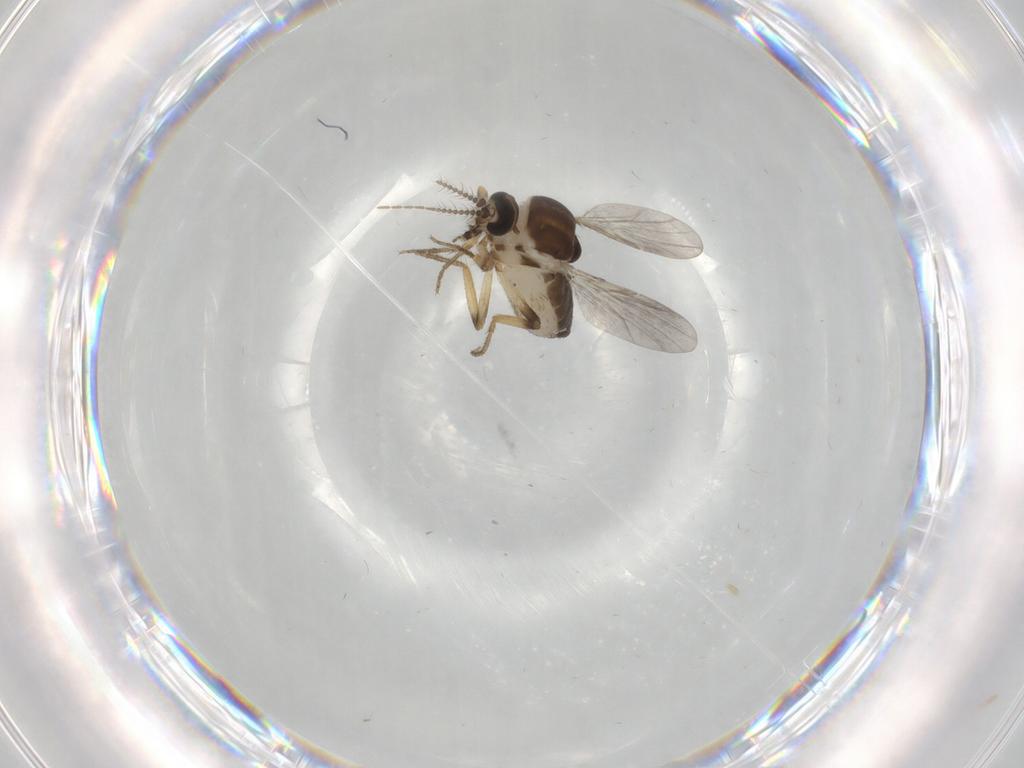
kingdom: Animalia
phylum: Arthropoda
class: Insecta
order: Diptera
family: Ceratopogonidae
